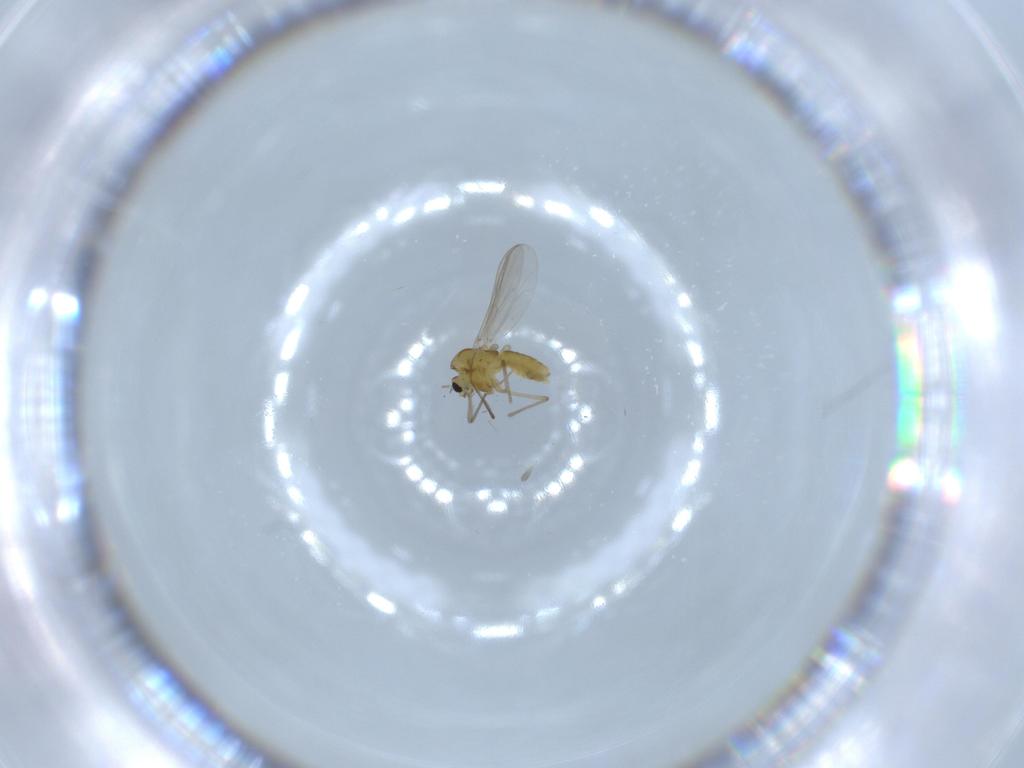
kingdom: Animalia
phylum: Arthropoda
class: Insecta
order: Diptera
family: Chironomidae
